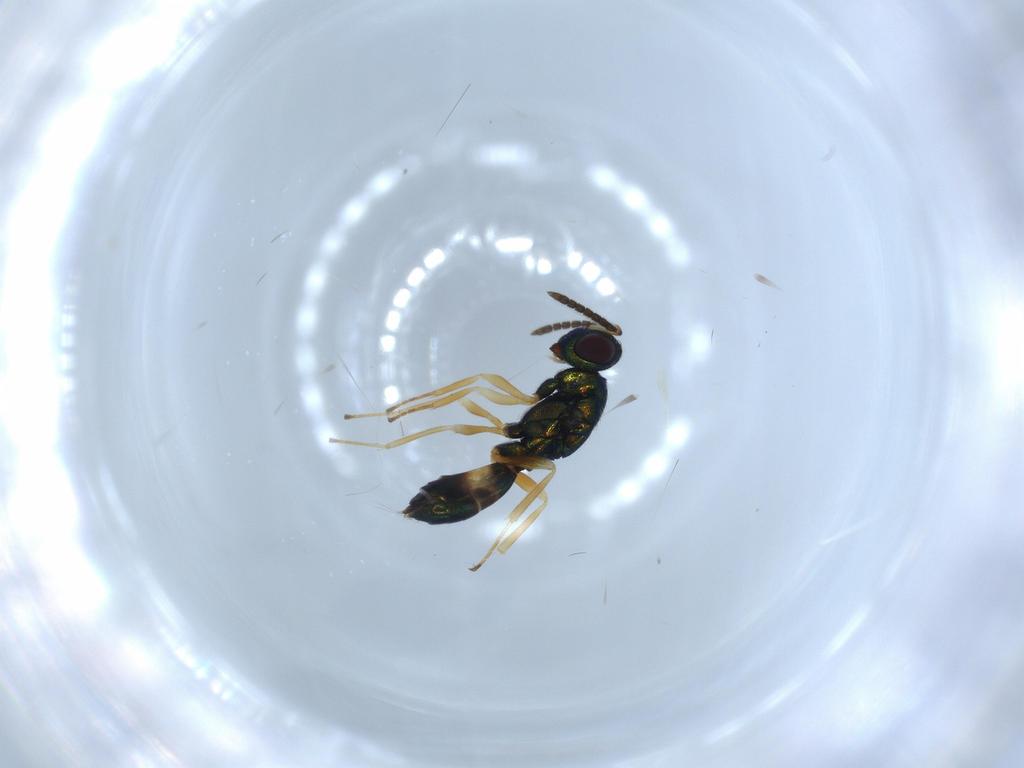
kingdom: Animalia
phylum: Arthropoda
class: Insecta
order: Hymenoptera
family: Pteromalidae
